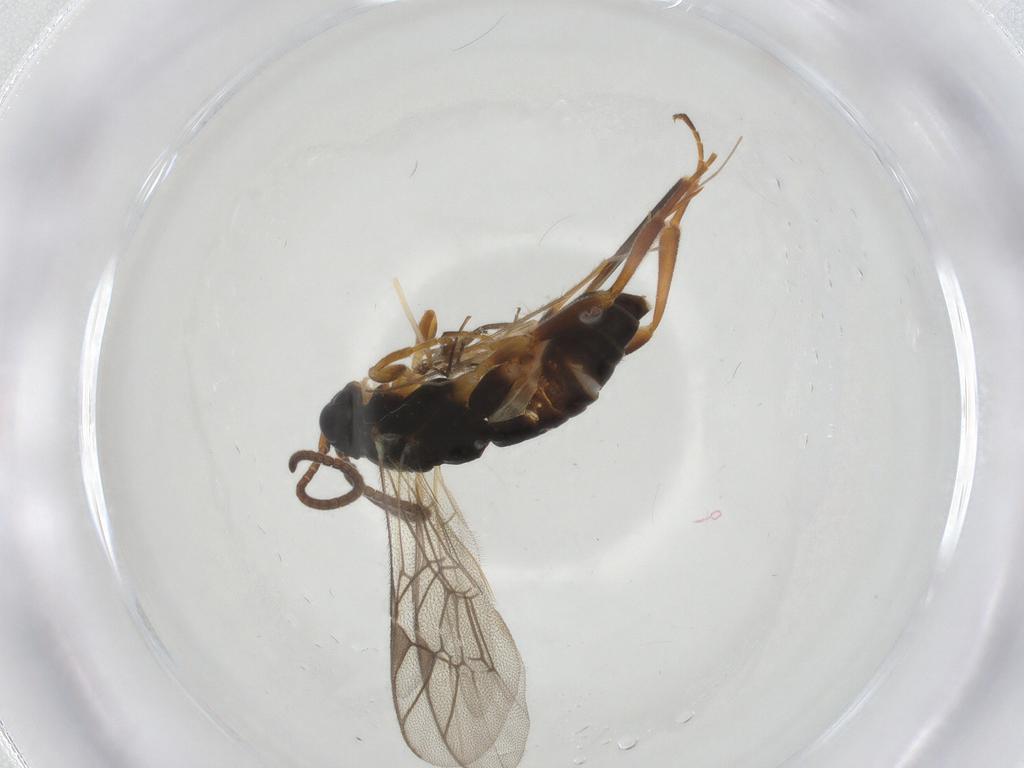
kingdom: Animalia
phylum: Arthropoda
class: Insecta
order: Hymenoptera
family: Ichneumonidae
